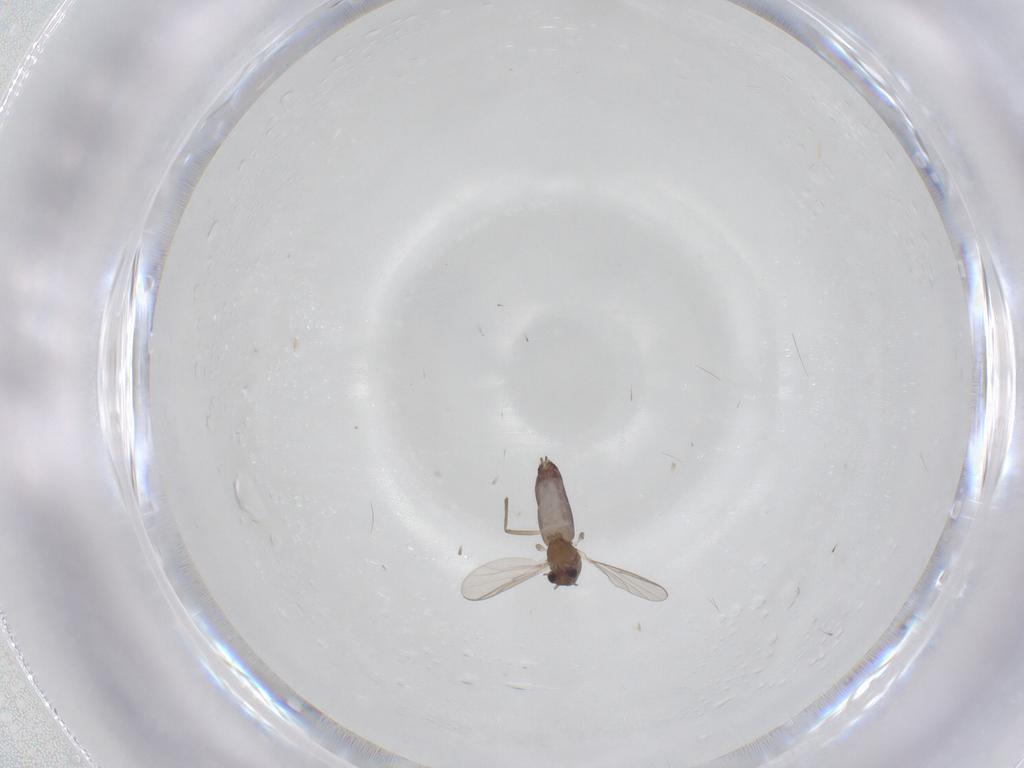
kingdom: Animalia
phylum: Arthropoda
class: Insecta
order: Diptera
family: Chironomidae
